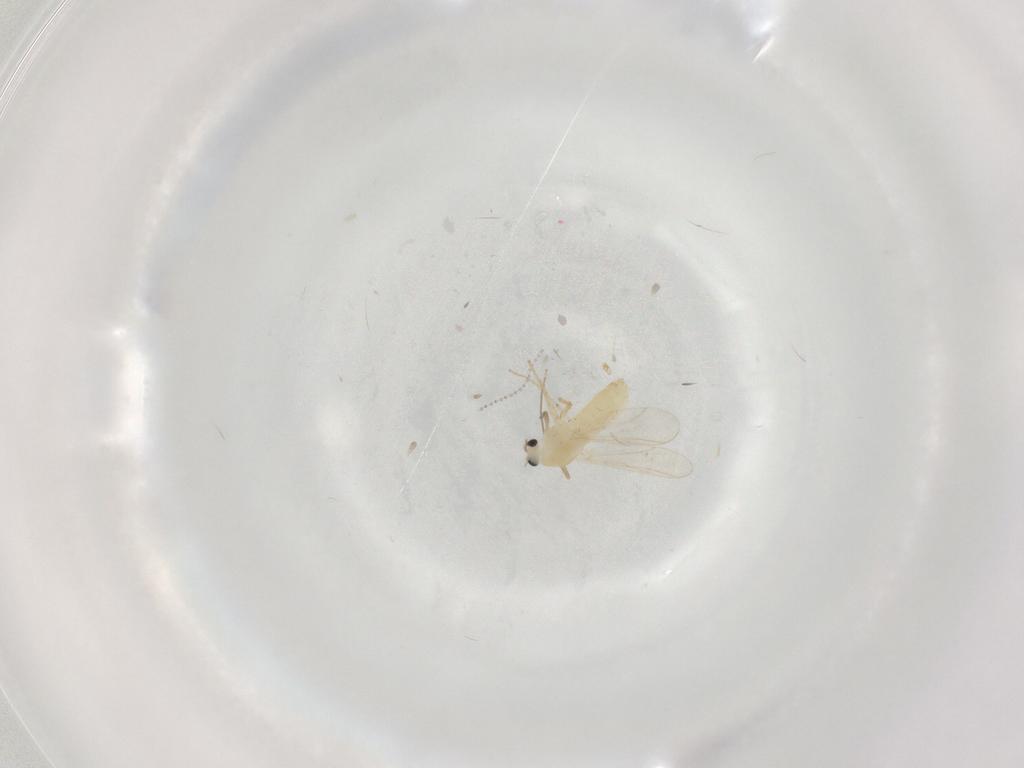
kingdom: Animalia
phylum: Arthropoda
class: Insecta
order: Diptera
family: Chironomidae
